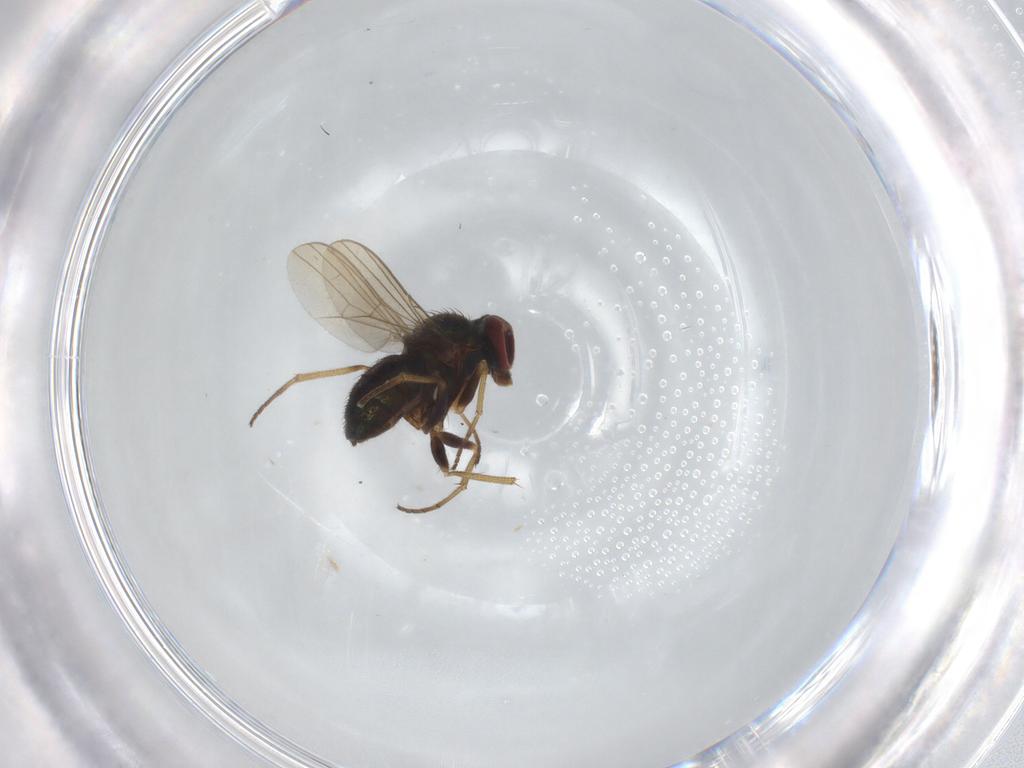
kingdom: Animalia
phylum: Arthropoda
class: Insecta
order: Diptera
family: Dolichopodidae
